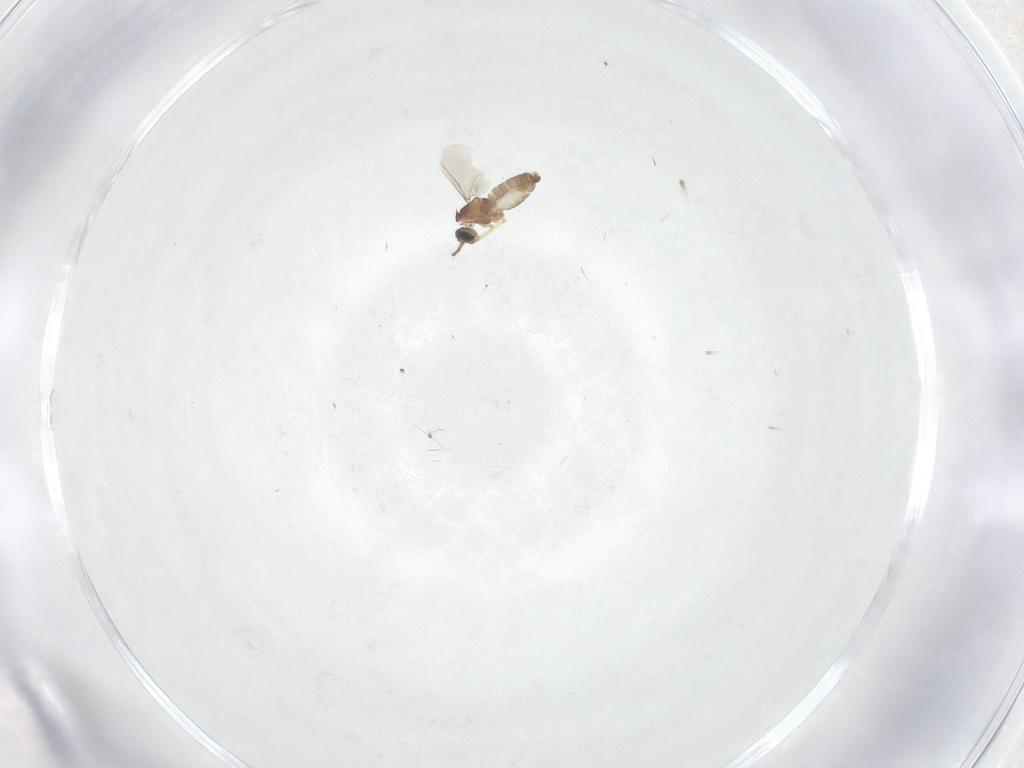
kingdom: Animalia
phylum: Arthropoda
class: Insecta
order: Diptera
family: Cecidomyiidae
